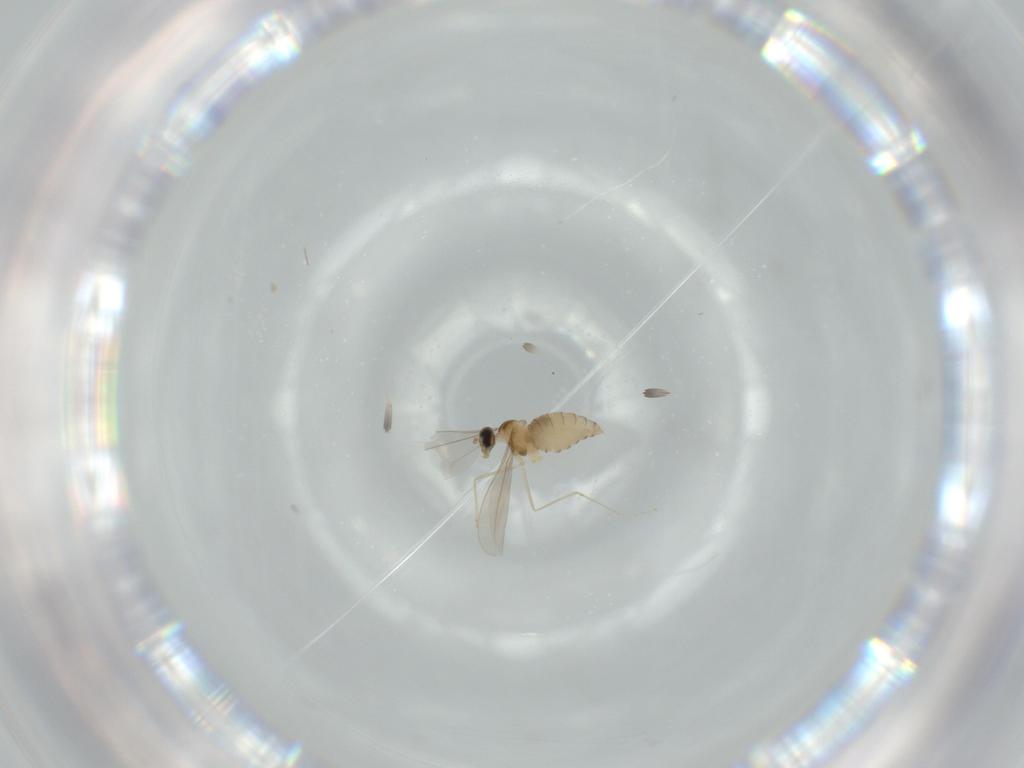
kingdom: Animalia
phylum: Arthropoda
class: Insecta
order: Diptera
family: Cecidomyiidae
